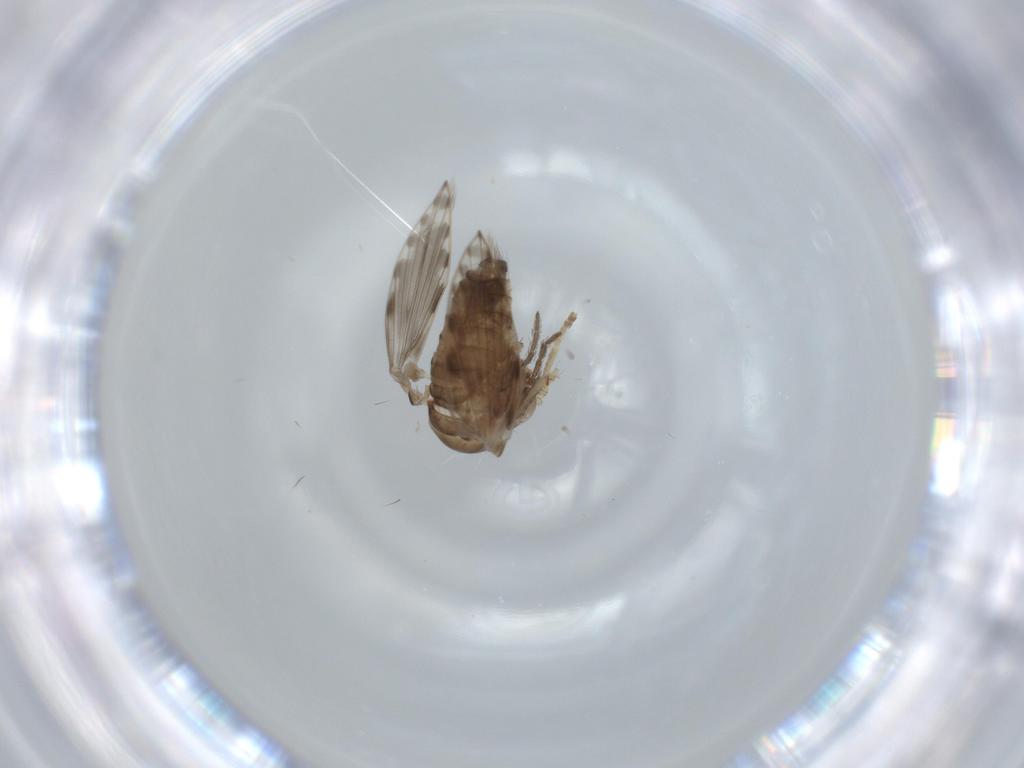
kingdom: Animalia
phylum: Arthropoda
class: Insecta
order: Diptera
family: Psychodidae
